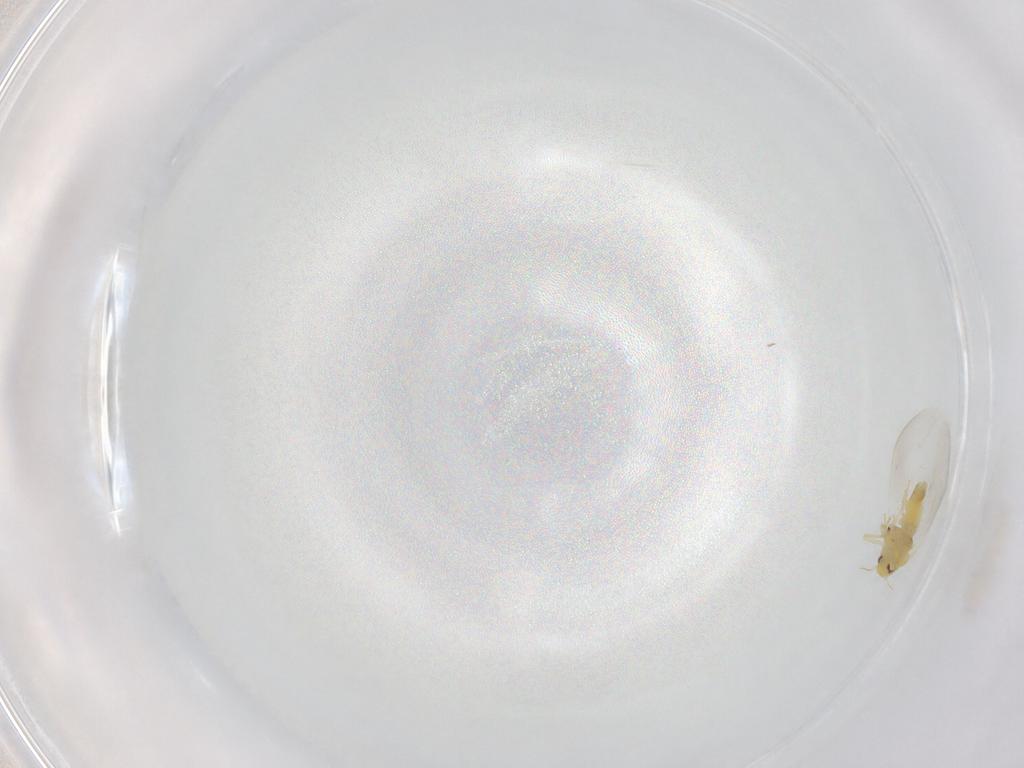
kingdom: Animalia
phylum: Arthropoda
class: Insecta
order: Hemiptera
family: Aleyrodidae
